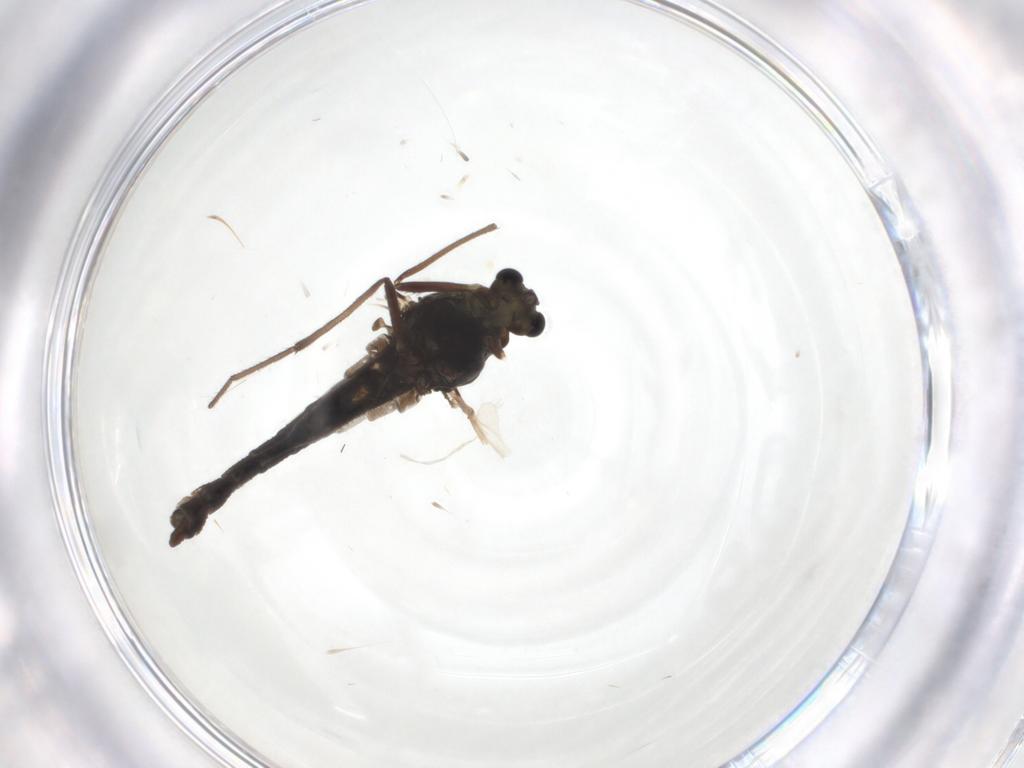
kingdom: Animalia
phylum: Arthropoda
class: Insecta
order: Diptera
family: Chironomidae
